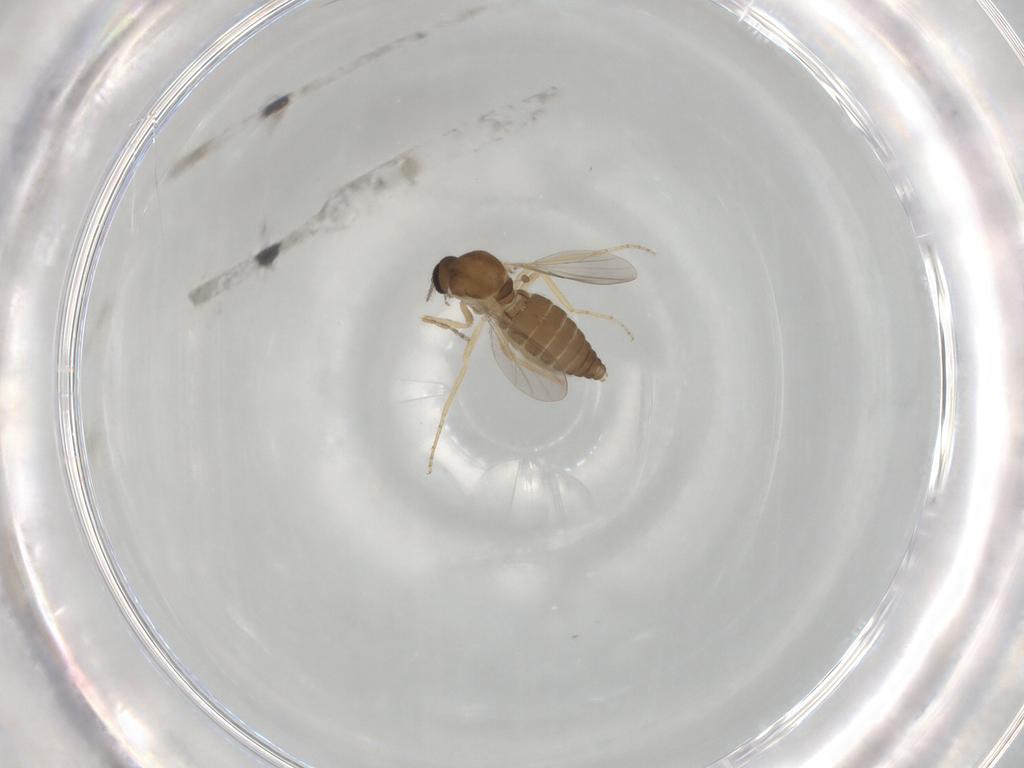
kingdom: Animalia
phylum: Arthropoda
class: Insecta
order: Diptera
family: Ceratopogonidae
